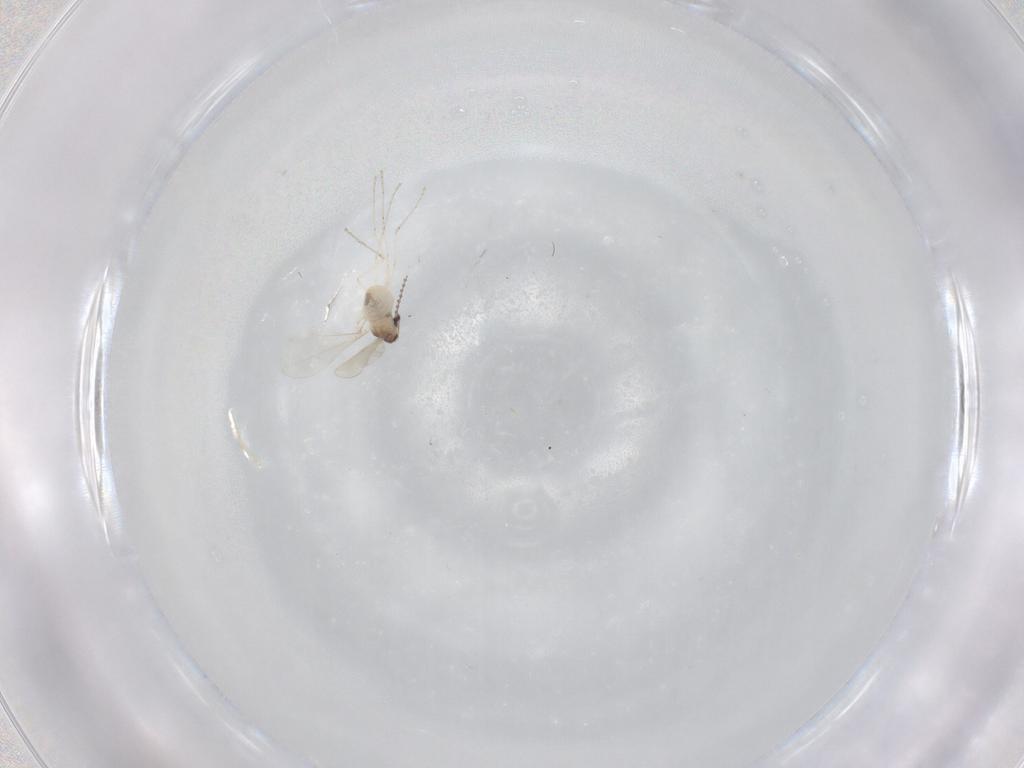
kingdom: Animalia
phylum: Arthropoda
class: Insecta
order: Diptera
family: Cecidomyiidae
